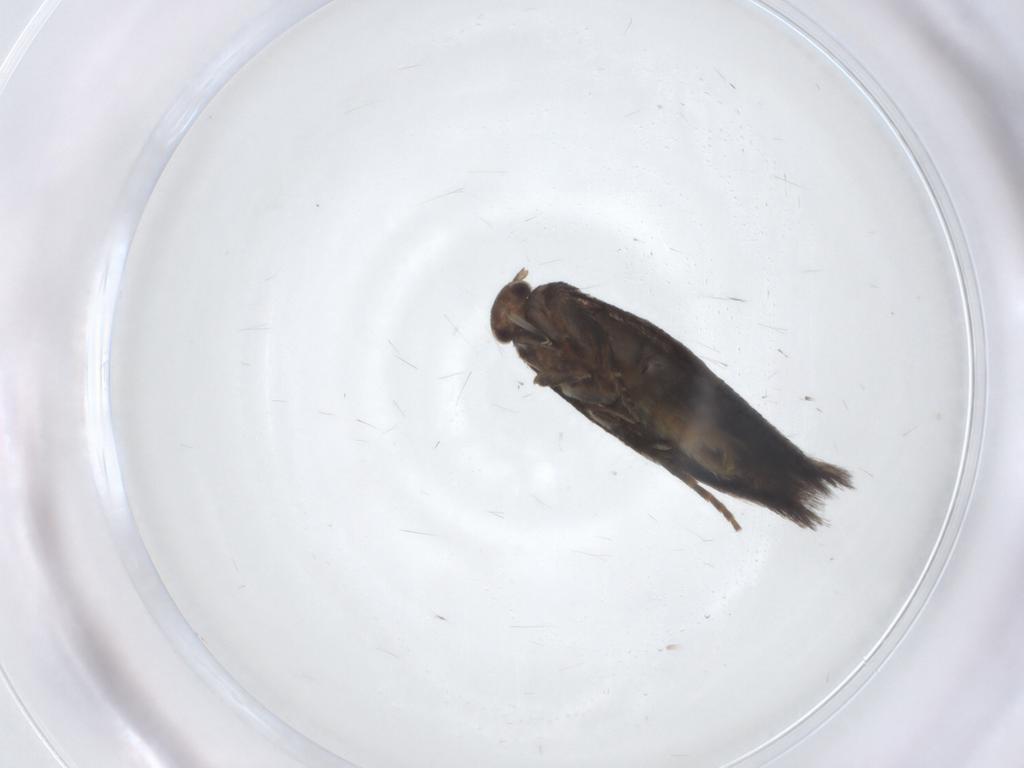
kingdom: Animalia
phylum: Arthropoda
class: Insecta
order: Lepidoptera
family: Elachistidae
